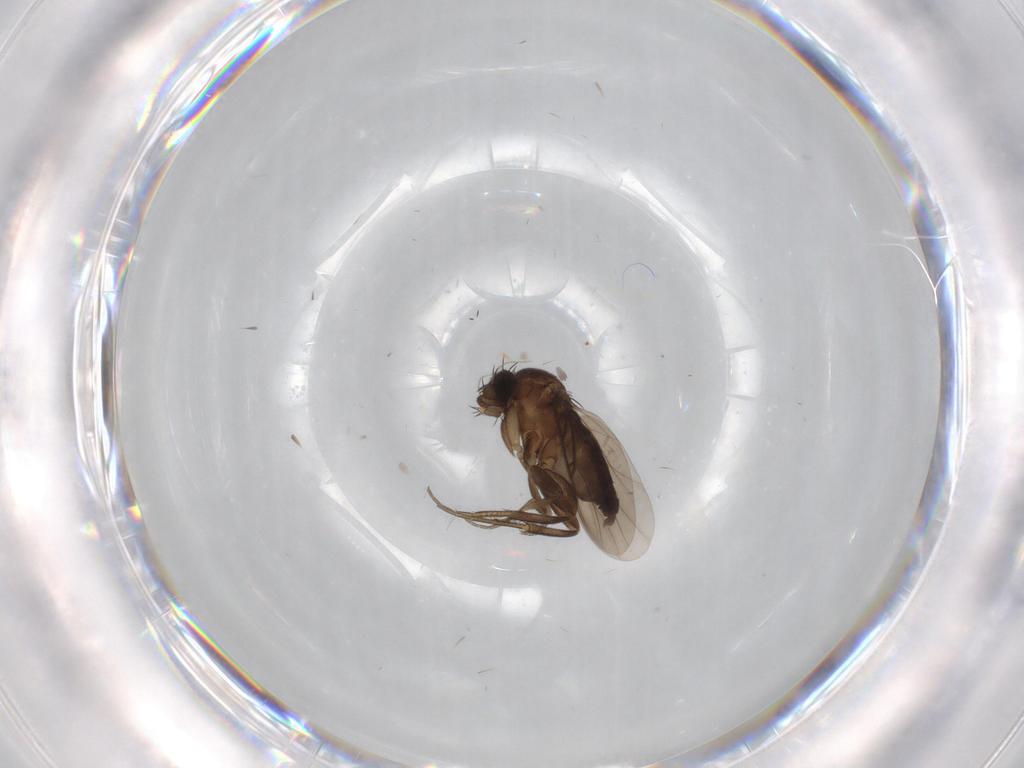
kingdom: Animalia
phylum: Arthropoda
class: Insecta
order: Diptera
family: Phoridae
